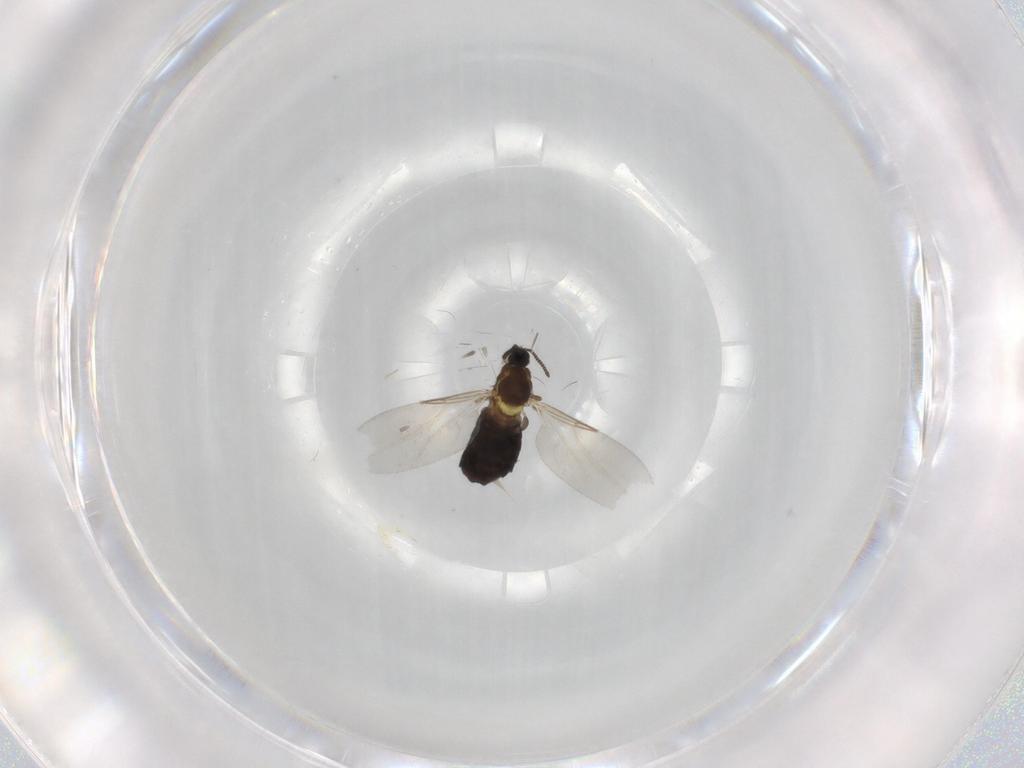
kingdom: Animalia
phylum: Arthropoda
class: Insecta
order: Diptera
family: Scatopsidae
